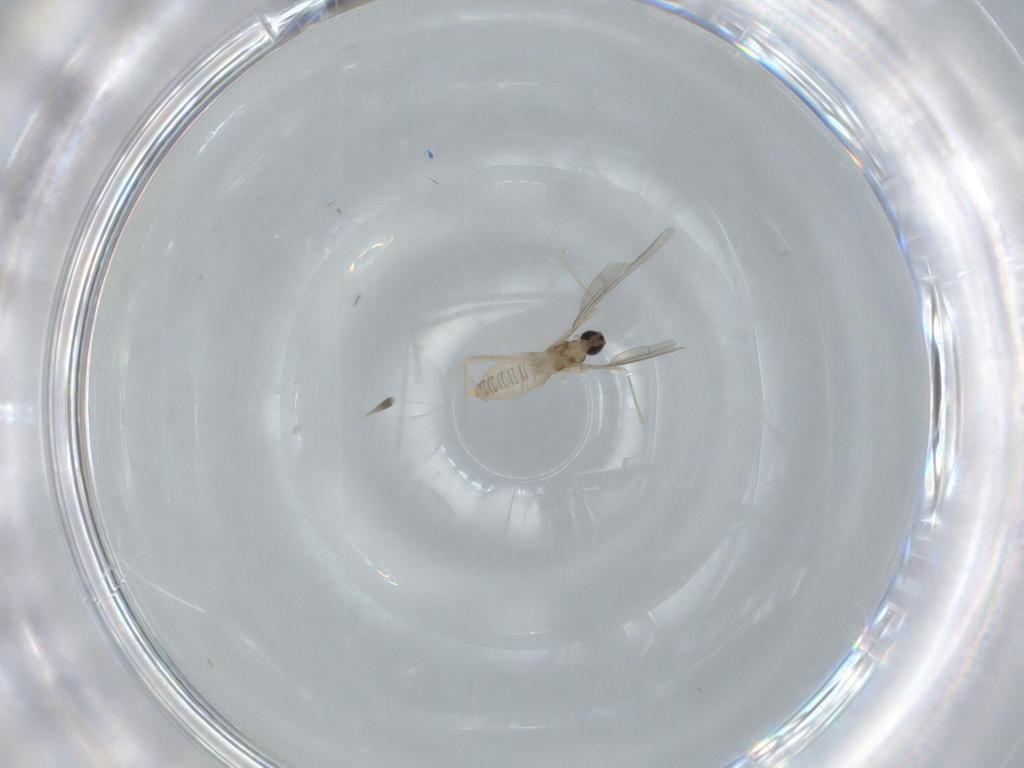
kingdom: Animalia
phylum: Arthropoda
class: Insecta
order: Diptera
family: Cecidomyiidae
